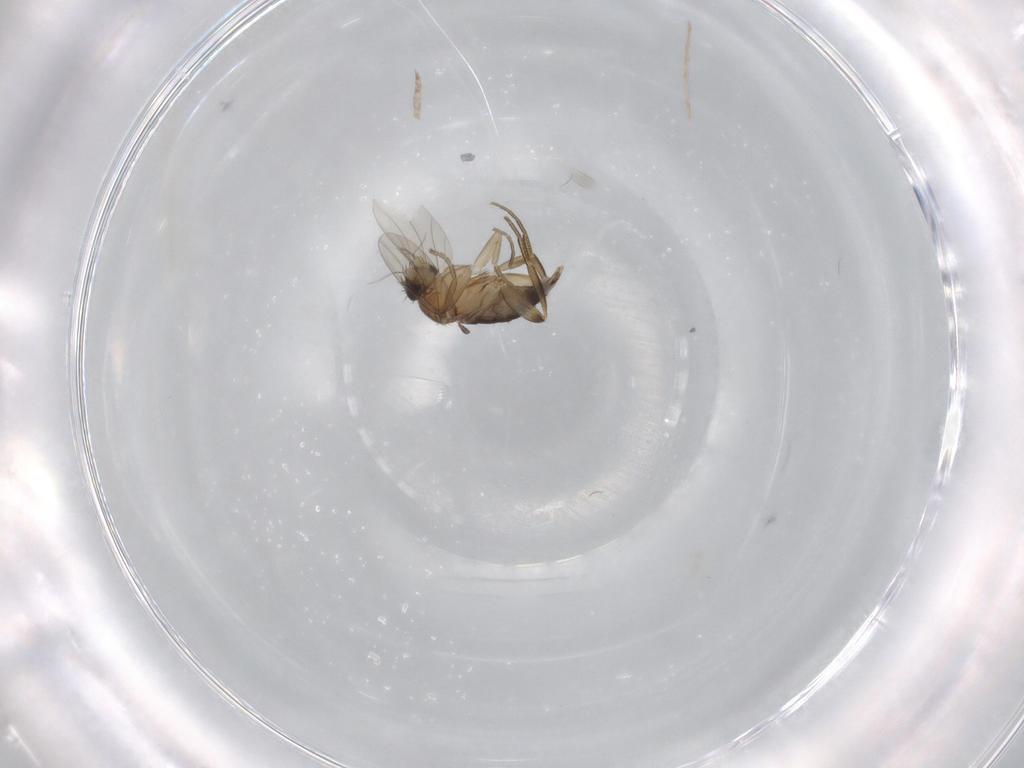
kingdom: Animalia
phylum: Arthropoda
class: Insecta
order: Diptera
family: Phoridae
